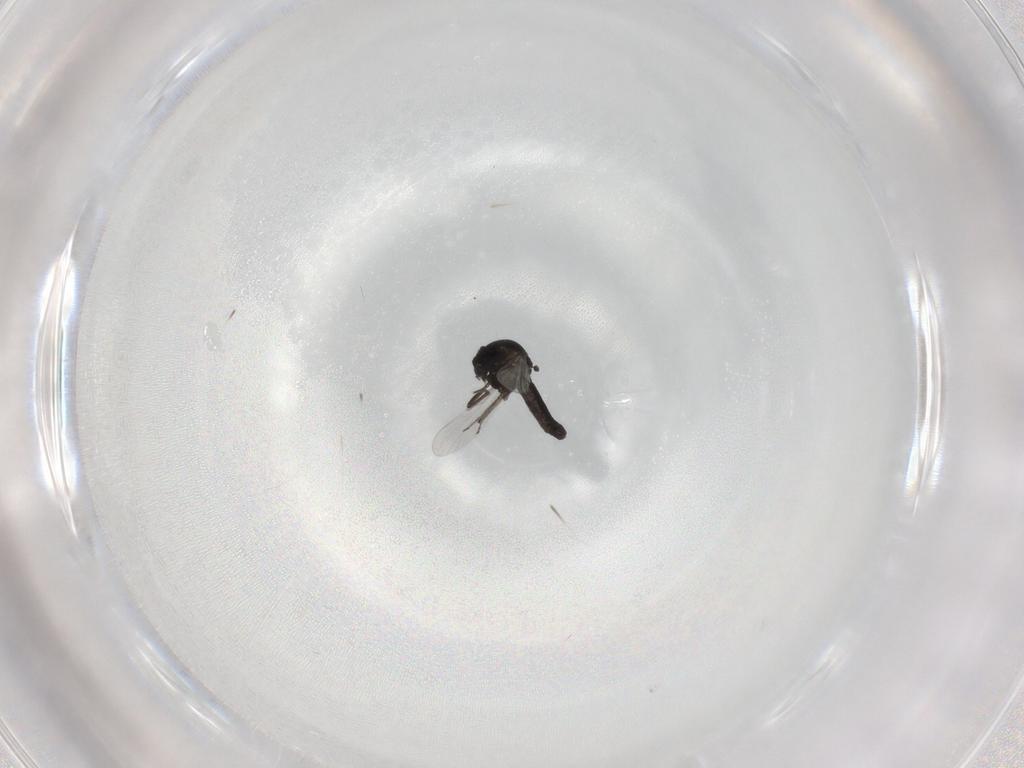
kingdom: Animalia
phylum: Arthropoda
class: Insecta
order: Diptera
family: Ceratopogonidae
